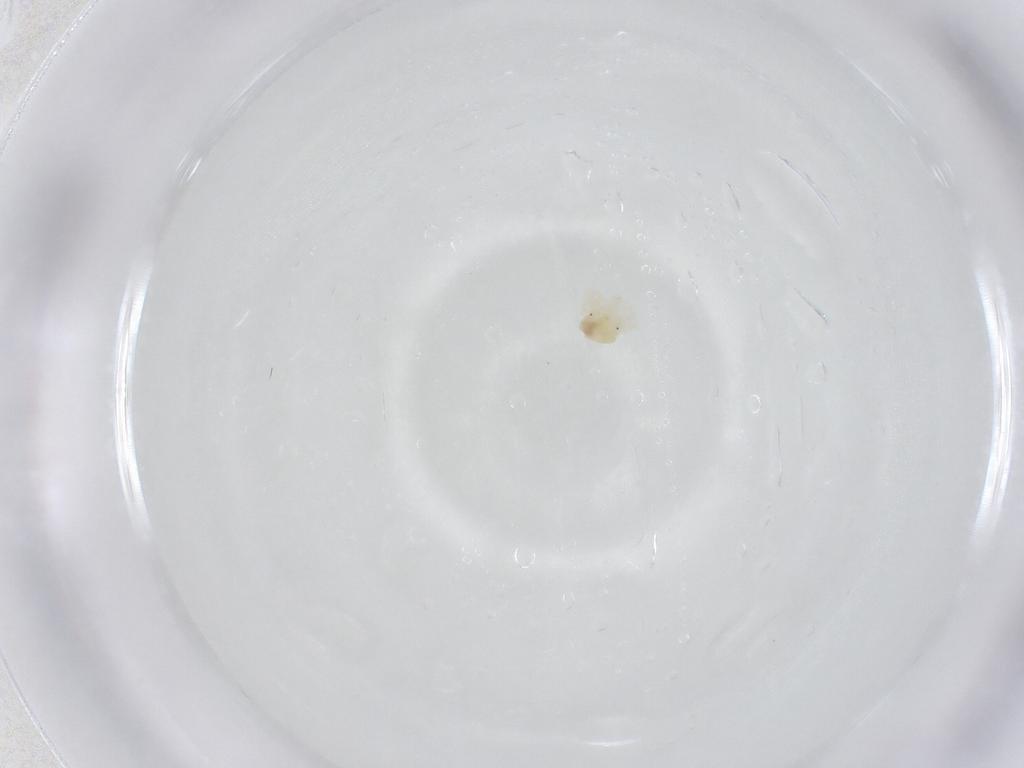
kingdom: Animalia
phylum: Arthropoda
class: Arachnida
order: Trombidiformes
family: Eriophyidae
